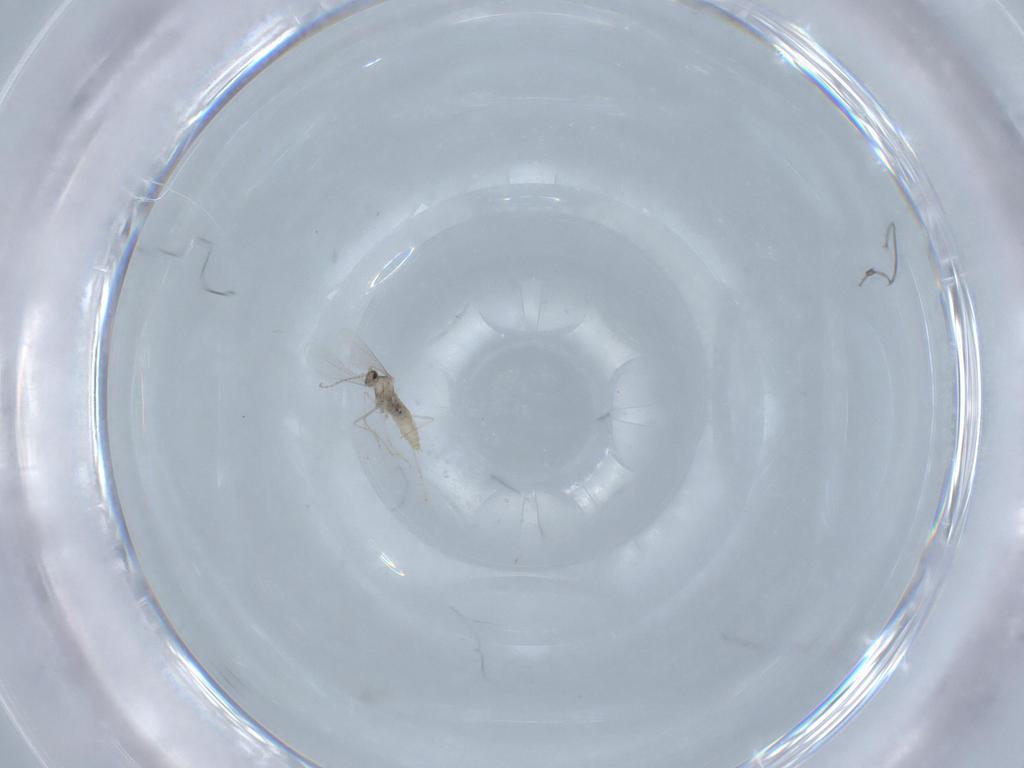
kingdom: Animalia
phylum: Arthropoda
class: Insecta
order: Diptera
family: Cecidomyiidae
